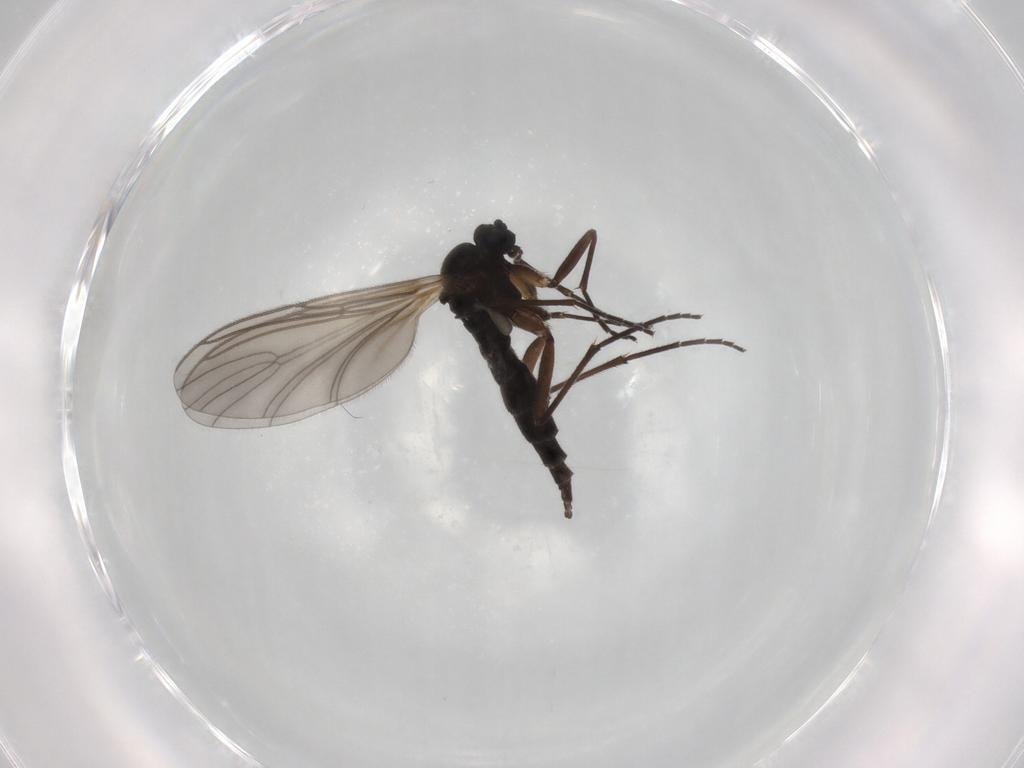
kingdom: Animalia
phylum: Arthropoda
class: Insecta
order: Diptera
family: Sciaridae
